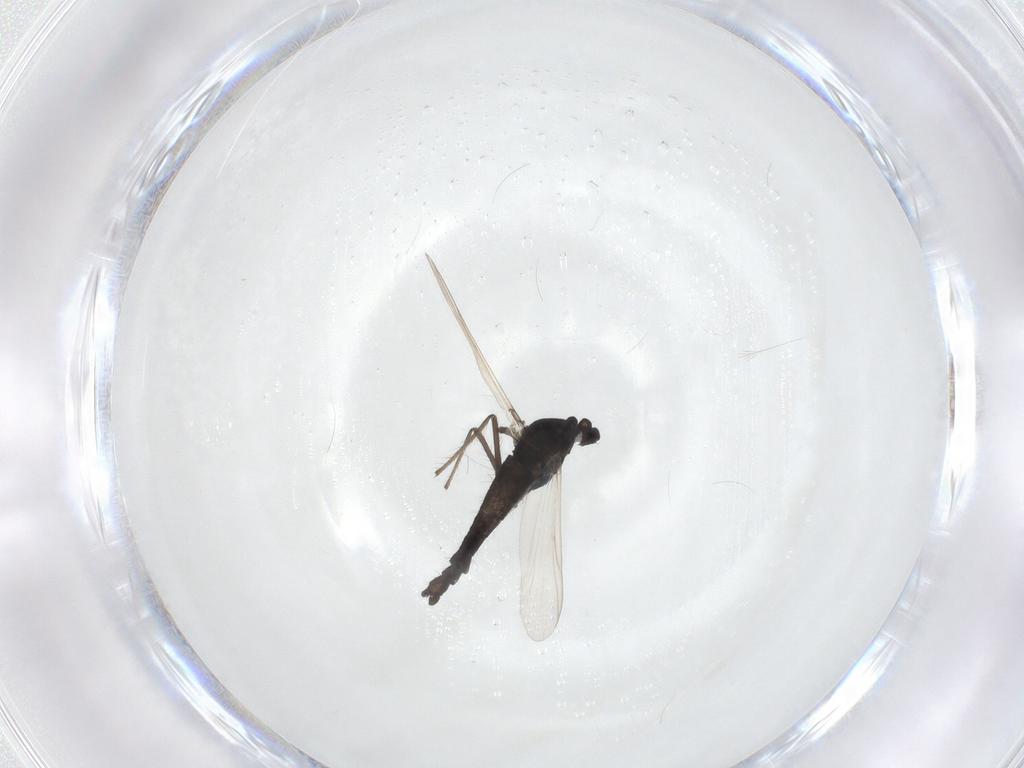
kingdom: Animalia
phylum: Arthropoda
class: Insecta
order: Diptera
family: Chironomidae
